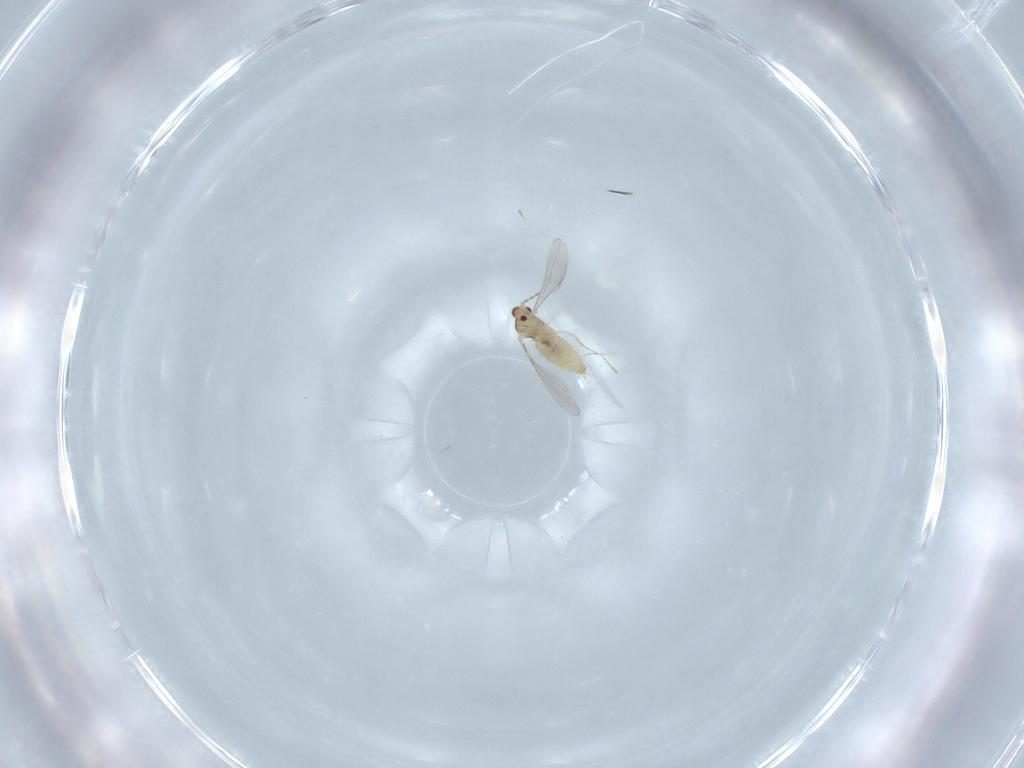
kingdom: Animalia
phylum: Arthropoda
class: Insecta
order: Diptera
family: Cecidomyiidae
